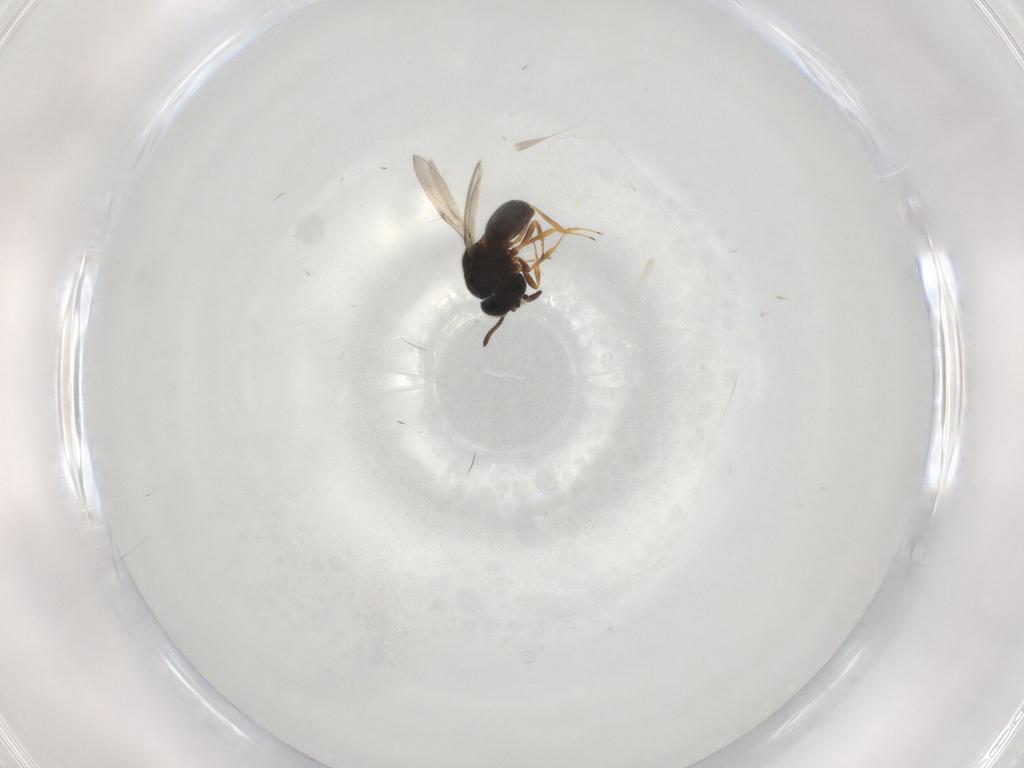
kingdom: Animalia
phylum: Arthropoda
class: Insecta
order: Hymenoptera
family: Scelionidae
